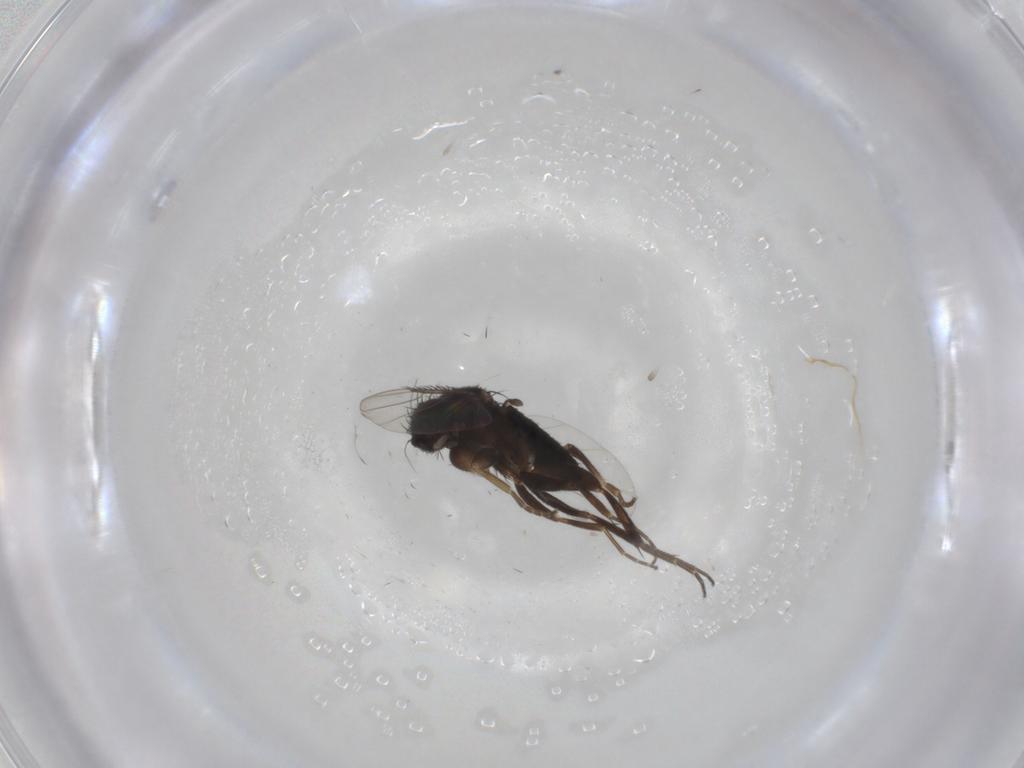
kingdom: Animalia
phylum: Arthropoda
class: Insecta
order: Diptera
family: Phoridae
